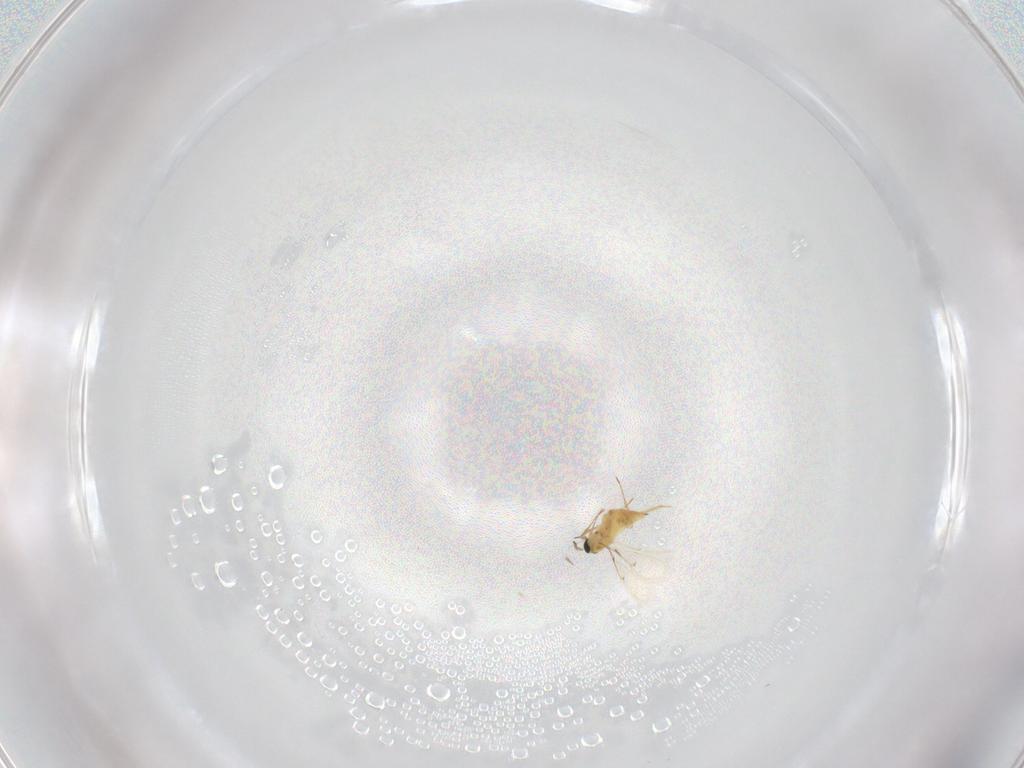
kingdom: Animalia
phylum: Arthropoda
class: Insecta
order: Hymenoptera
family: Trichogrammatidae
